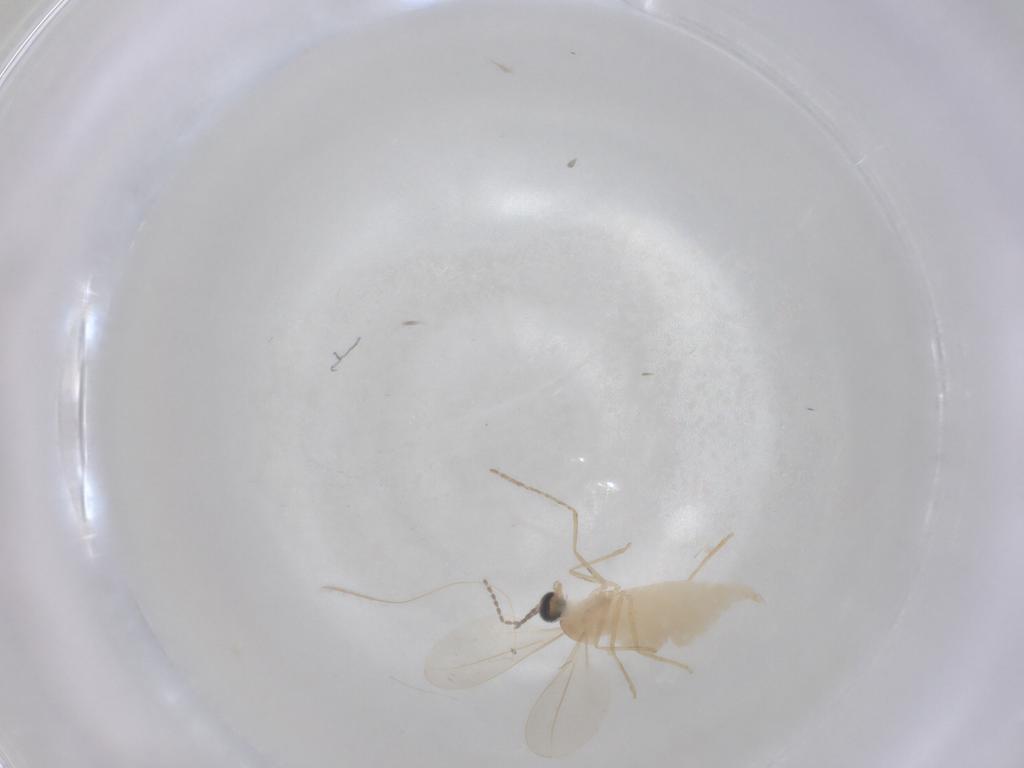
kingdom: Animalia
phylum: Arthropoda
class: Insecta
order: Diptera
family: Cecidomyiidae
